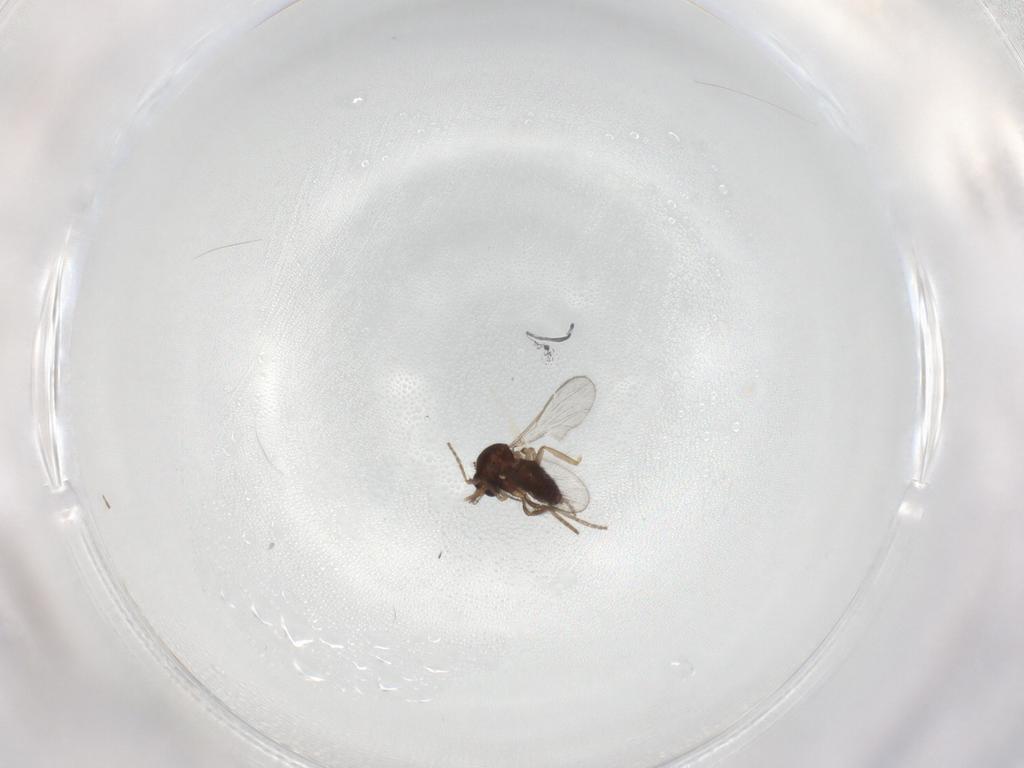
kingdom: Animalia
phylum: Arthropoda
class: Insecta
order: Diptera
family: Ceratopogonidae
